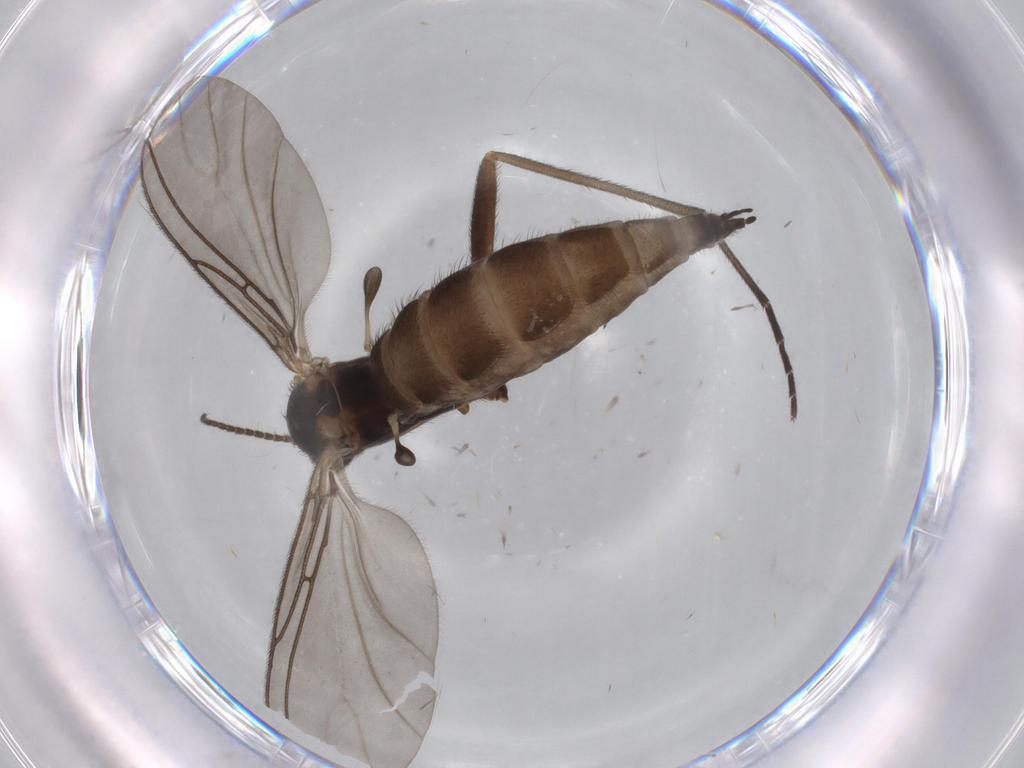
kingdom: Animalia
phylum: Arthropoda
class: Insecta
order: Diptera
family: Sciaridae
